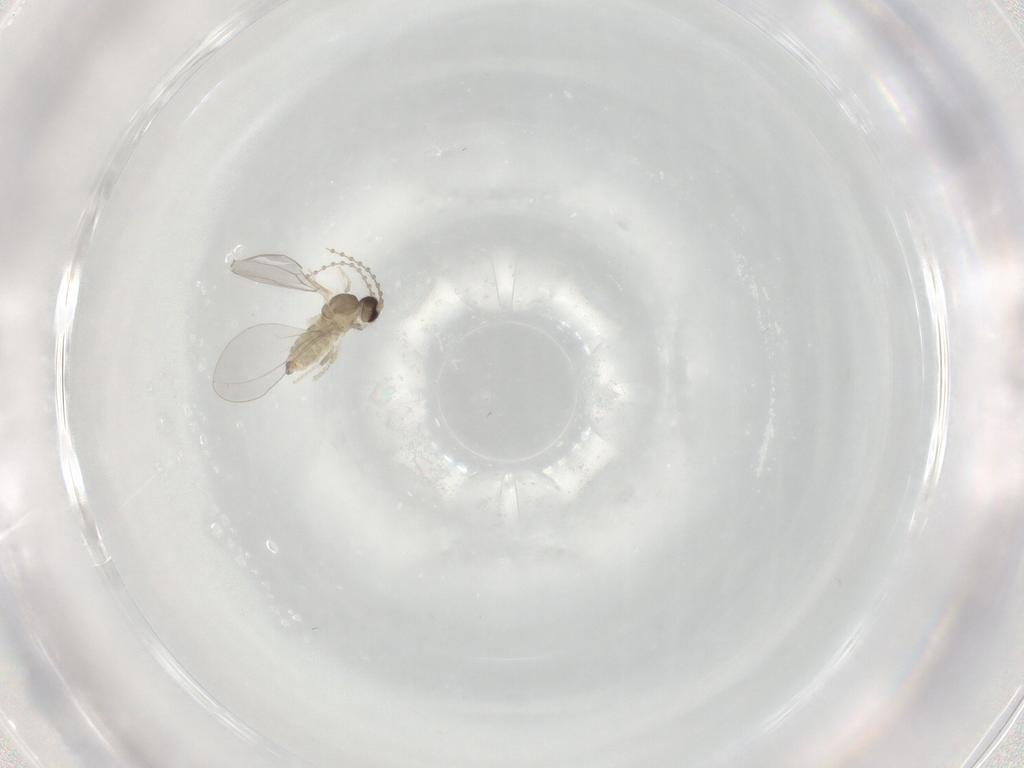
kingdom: Animalia
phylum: Arthropoda
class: Insecta
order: Diptera
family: Cecidomyiidae
